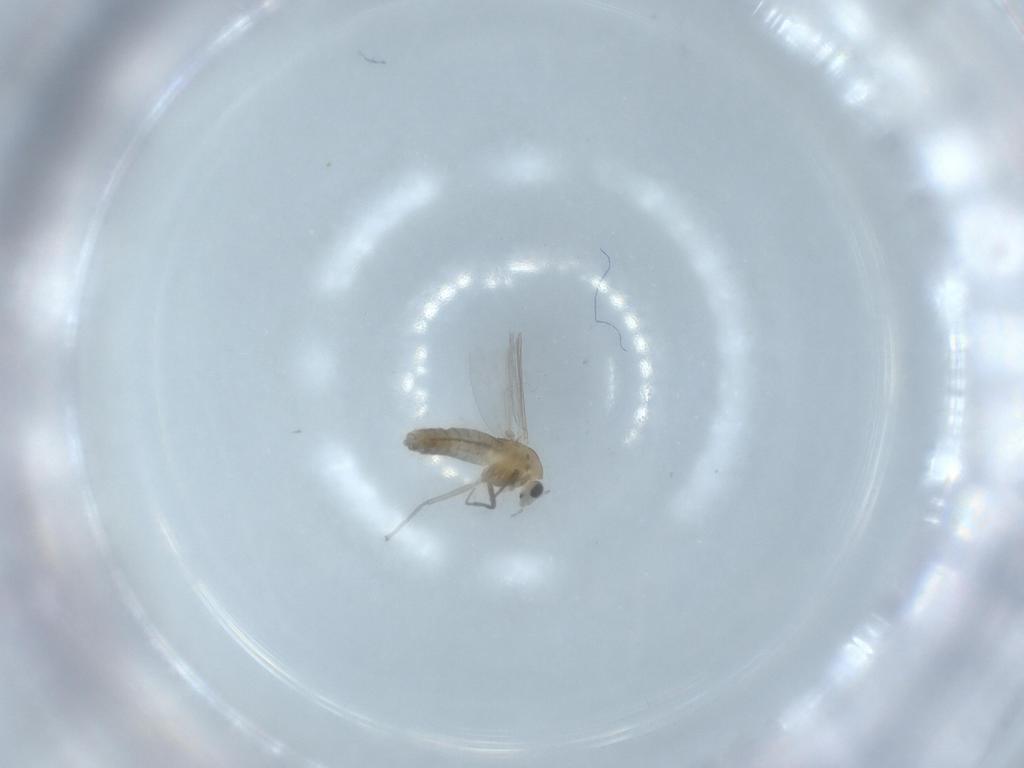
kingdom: Animalia
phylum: Arthropoda
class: Insecta
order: Diptera
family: Chironomidae
